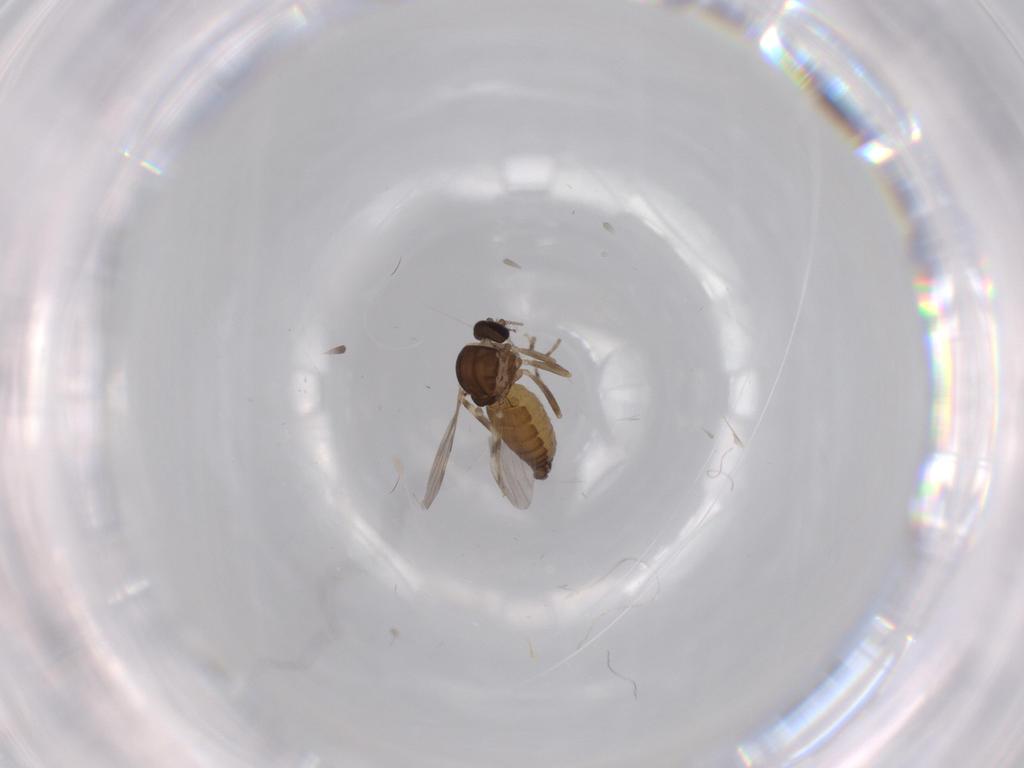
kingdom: Animalia
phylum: Arthropoda
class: Insecta
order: Diptera
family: Ceratopogonidae
